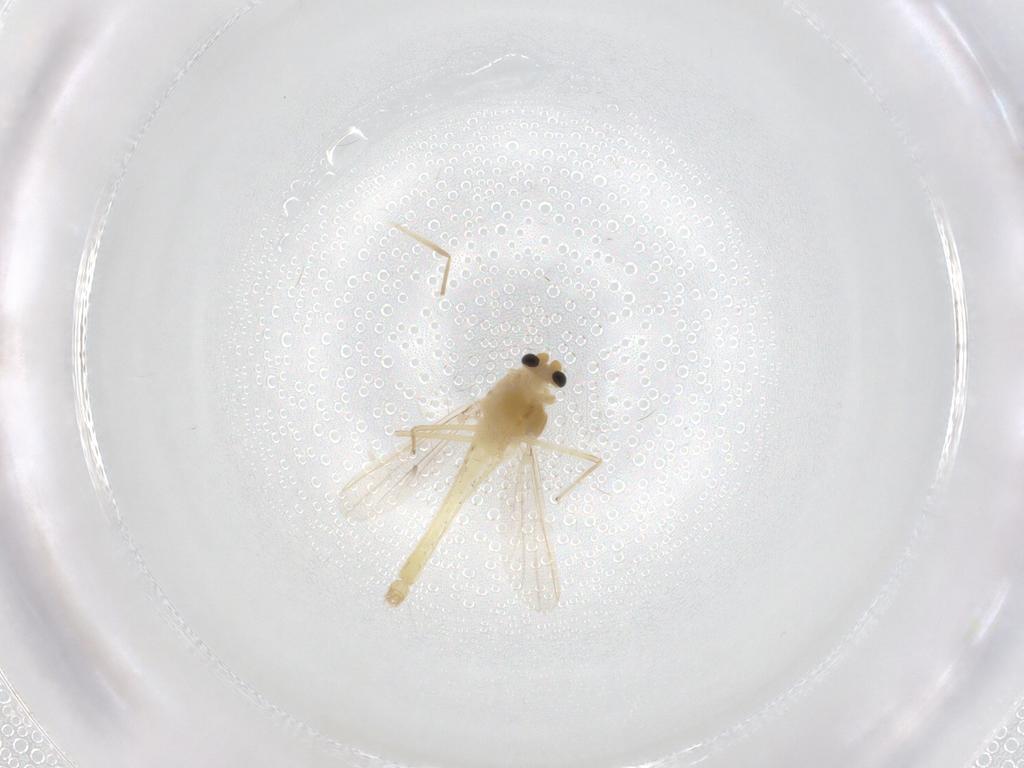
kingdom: Animalia
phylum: Arthropoda
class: Insecta
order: Diptera
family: Chironomidae
